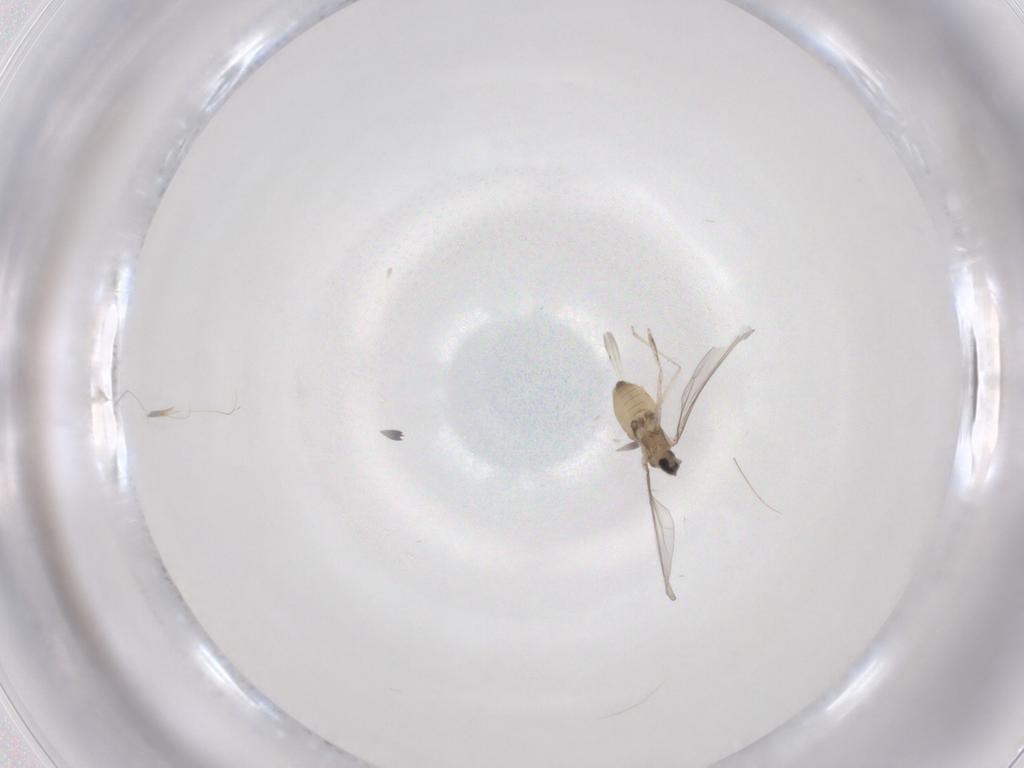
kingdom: Animalia
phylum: Arthropoda
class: Insecta
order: Diptera
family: Cecidomyiidae
